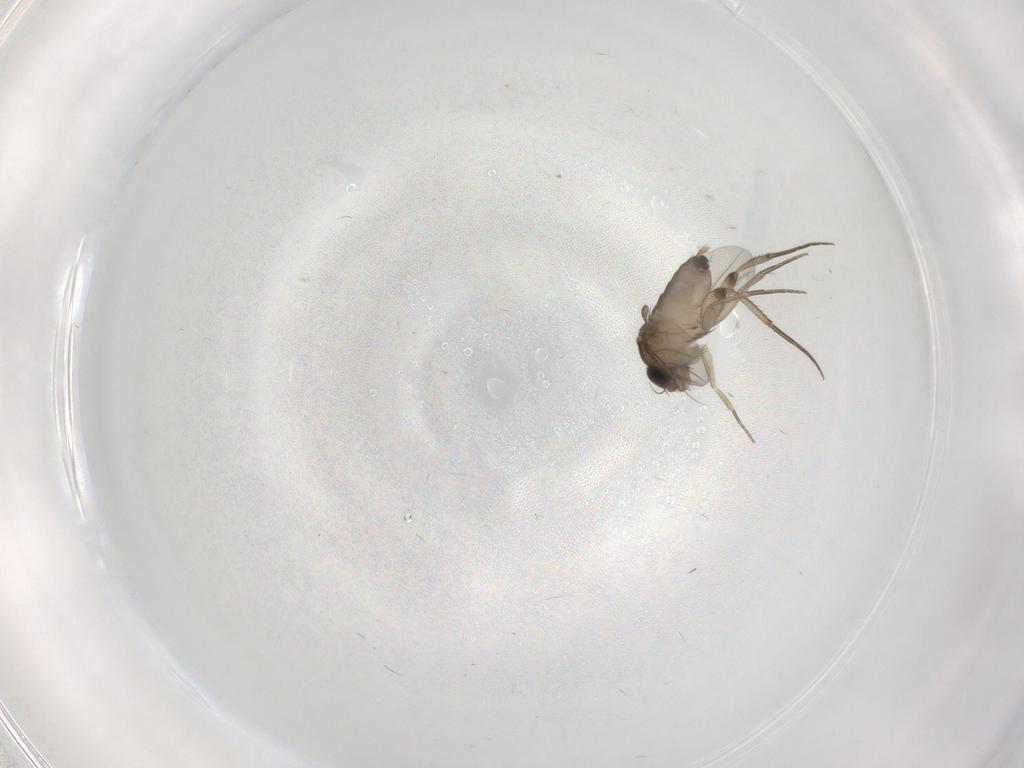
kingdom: Animalia
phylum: Arthropoda
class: Insecta
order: Diptera
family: Phoridae
